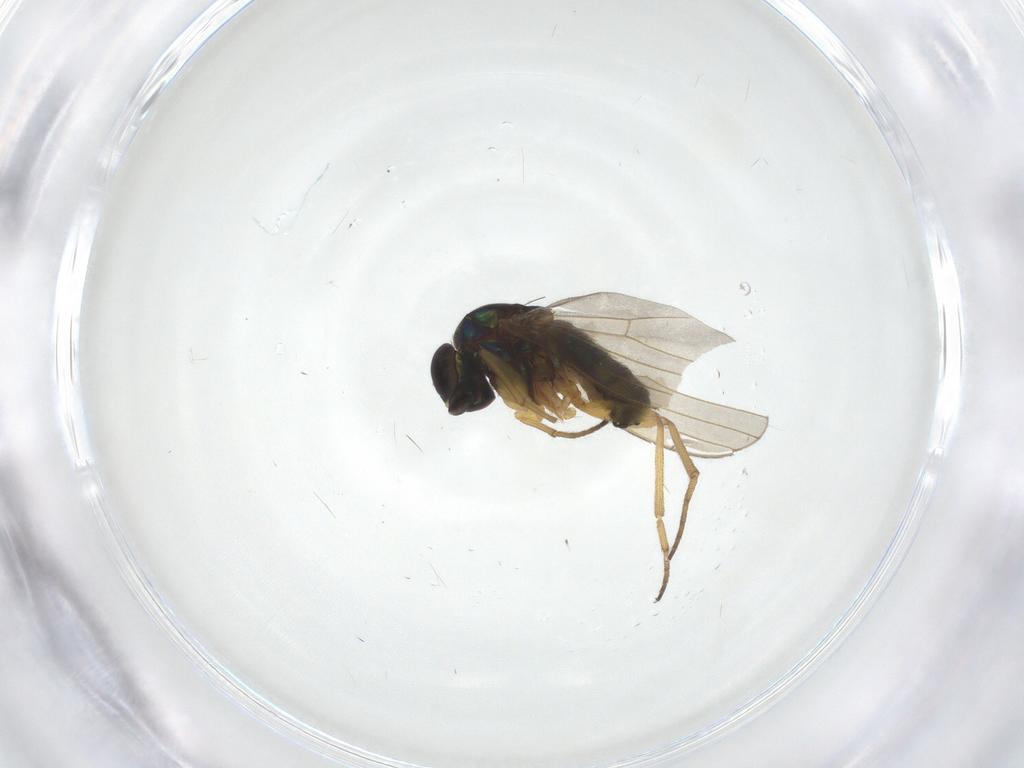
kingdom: Animalia
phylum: Arthropoda
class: Insecta
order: Diptera
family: Dolichopodidae
